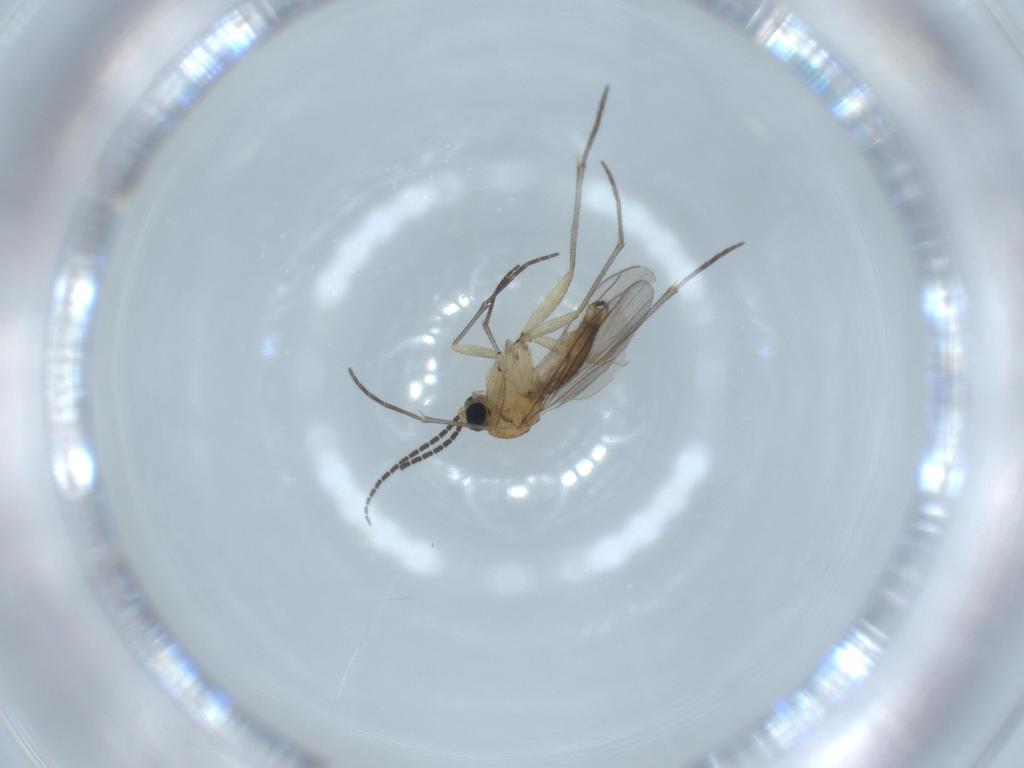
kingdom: Animalia
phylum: Arthropoda
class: Insecta
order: Diptera
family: Sciaridae
